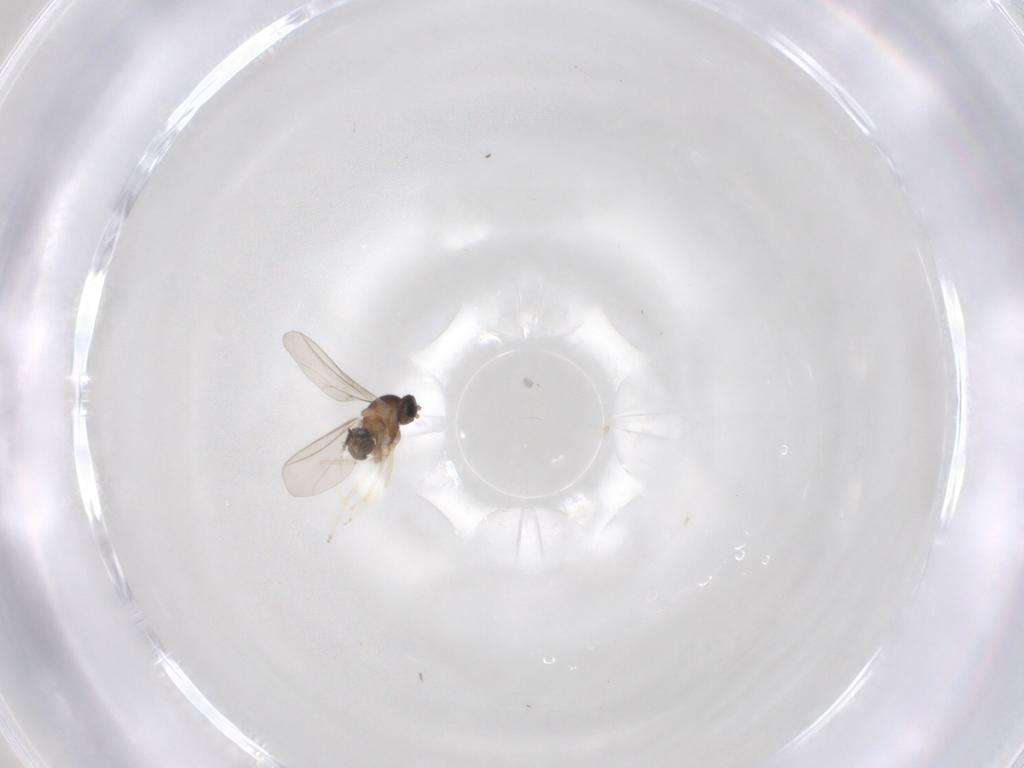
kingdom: Animalia
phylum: Arthropoda
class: Insecta
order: Diptera
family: Cecidomyiidae
